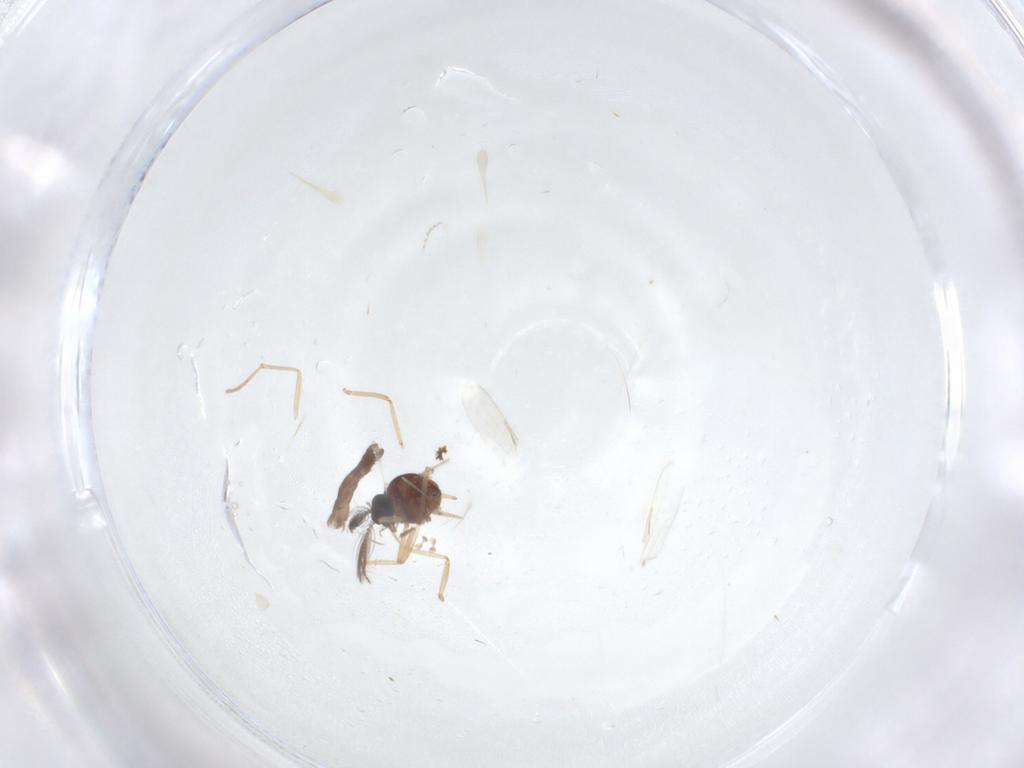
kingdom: Animalia
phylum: Arthropoda
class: Insecta
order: Diptera
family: Ceratopogonidae
